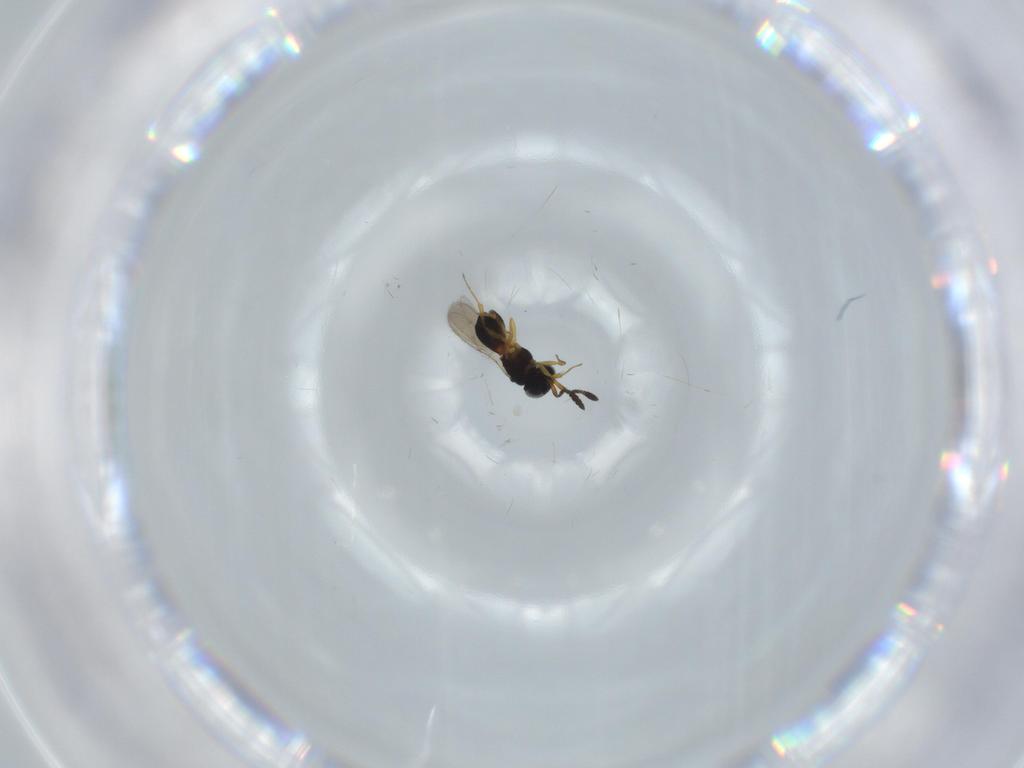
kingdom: Animalia
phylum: Arthropoda
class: Insecta
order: Hymenoptera
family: Scelionidae
